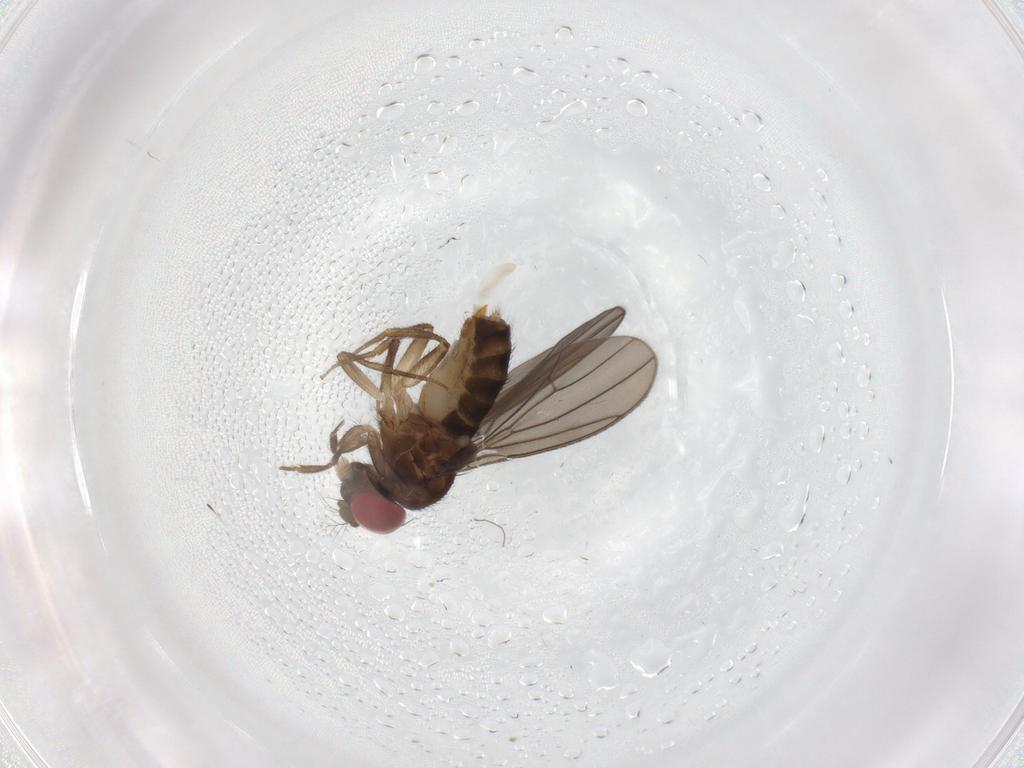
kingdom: Animalia
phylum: Arthropoda
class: Insecta
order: Diptera
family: Drosophilidae
